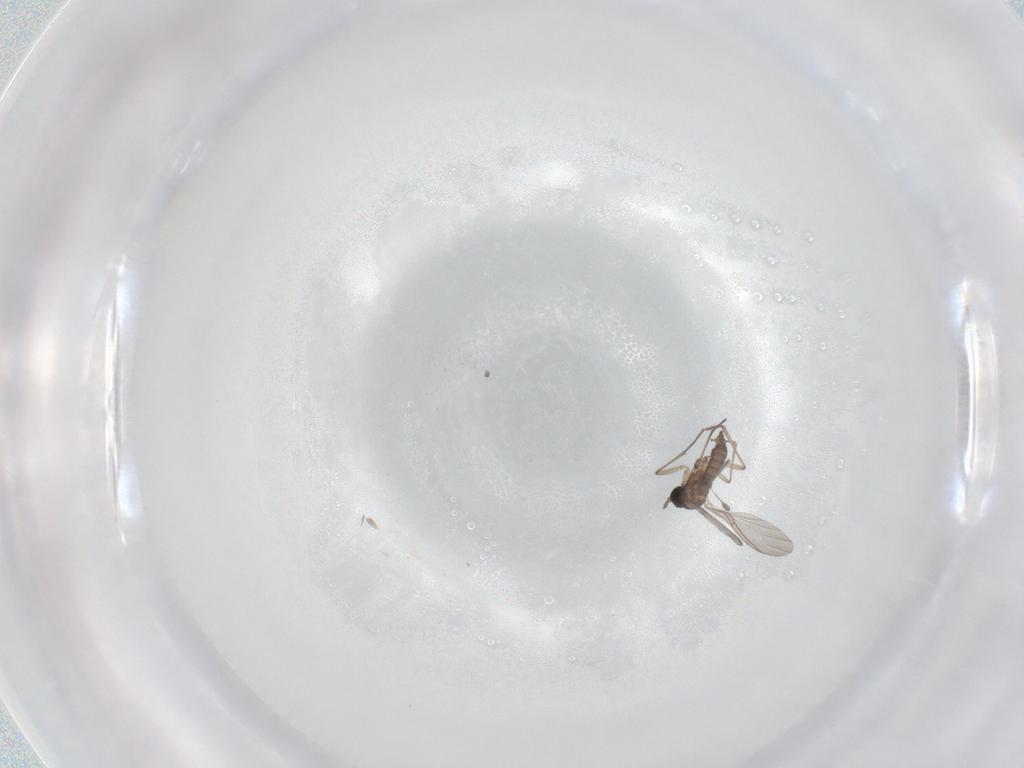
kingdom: Animalia
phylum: Arthropoda
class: Insecta
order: Diptera
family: Sciaridae
